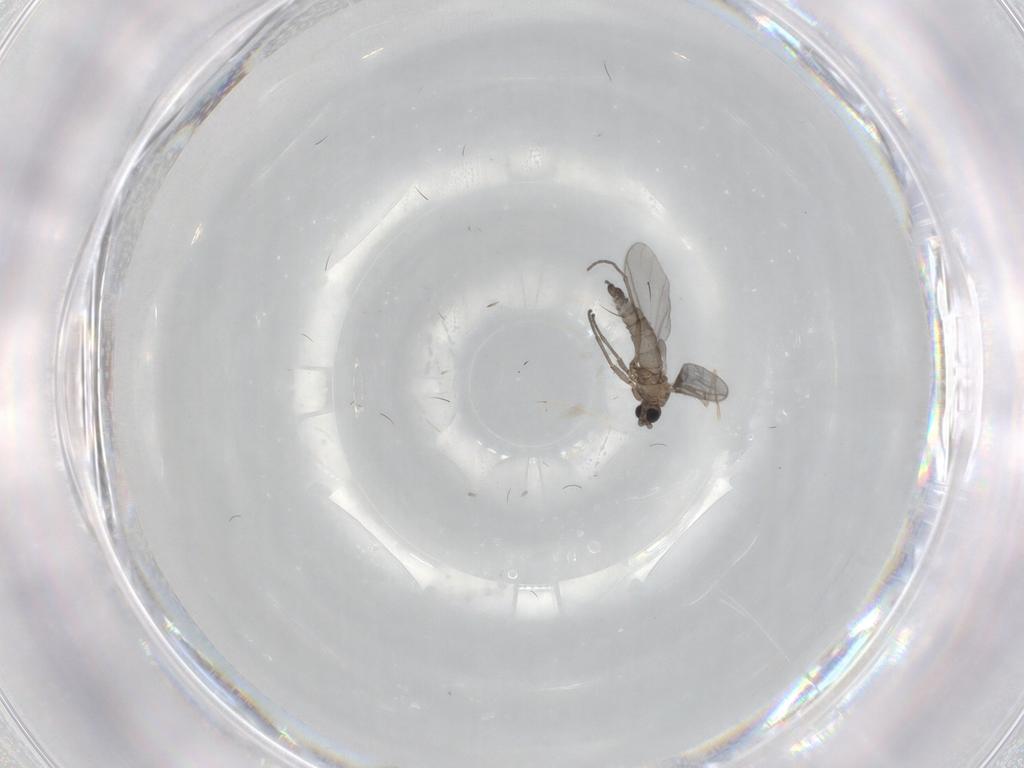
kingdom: Animalia
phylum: Arthropoda
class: Insecta
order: Diptera
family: Sciaridae
